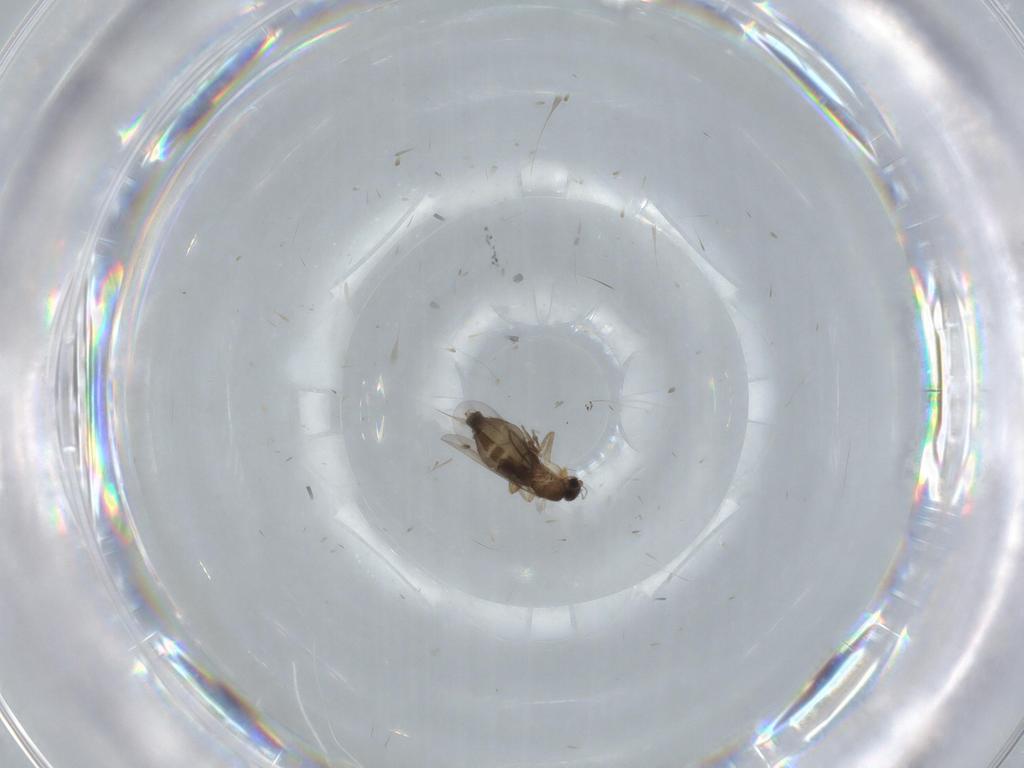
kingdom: Animalia
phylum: Arthropoda
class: Insecta
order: Diptera
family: Phoridae
